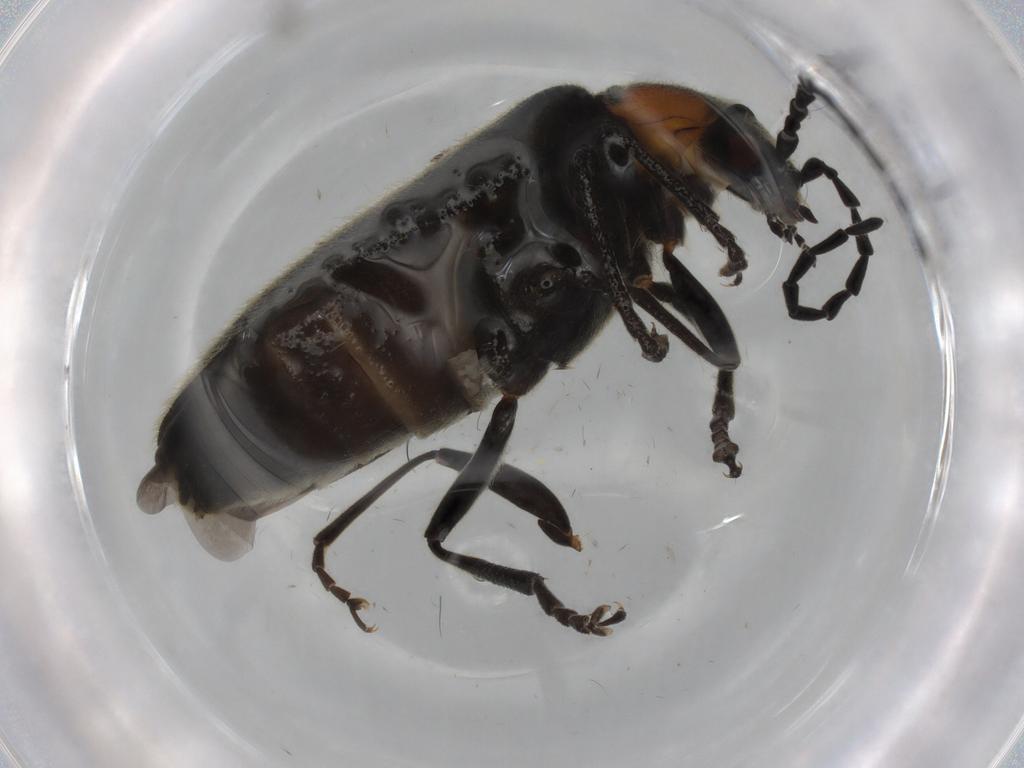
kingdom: Animalia
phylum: Arthropoda
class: Insecta
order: Coleoptera
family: Cantharidae
